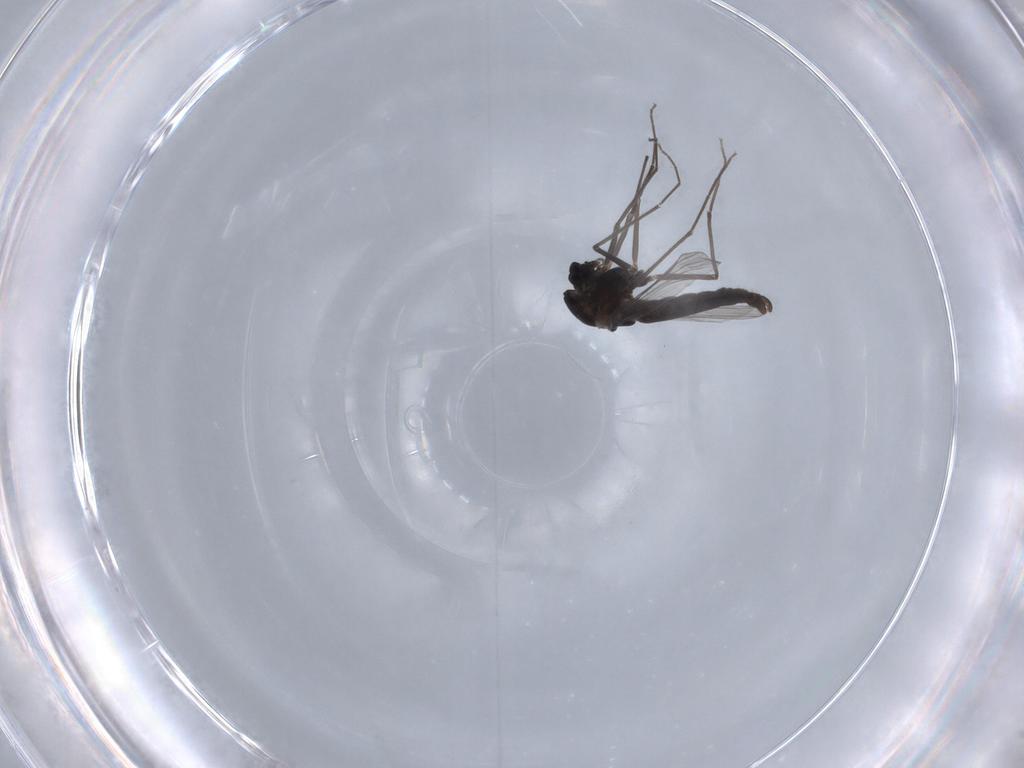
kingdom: Animalia
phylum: Arthropoda
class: Insecta
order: Diptera
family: Chironomidae
